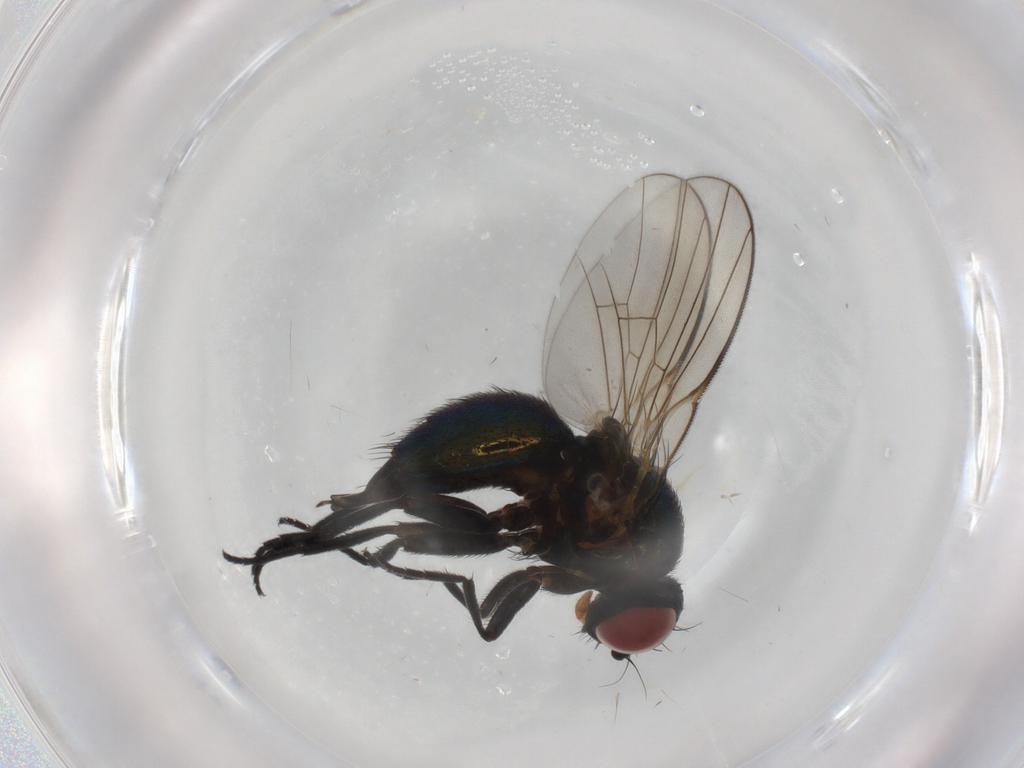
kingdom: Animalia
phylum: Arthropoda
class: Insecta
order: Diptera
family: Agromyzidae
